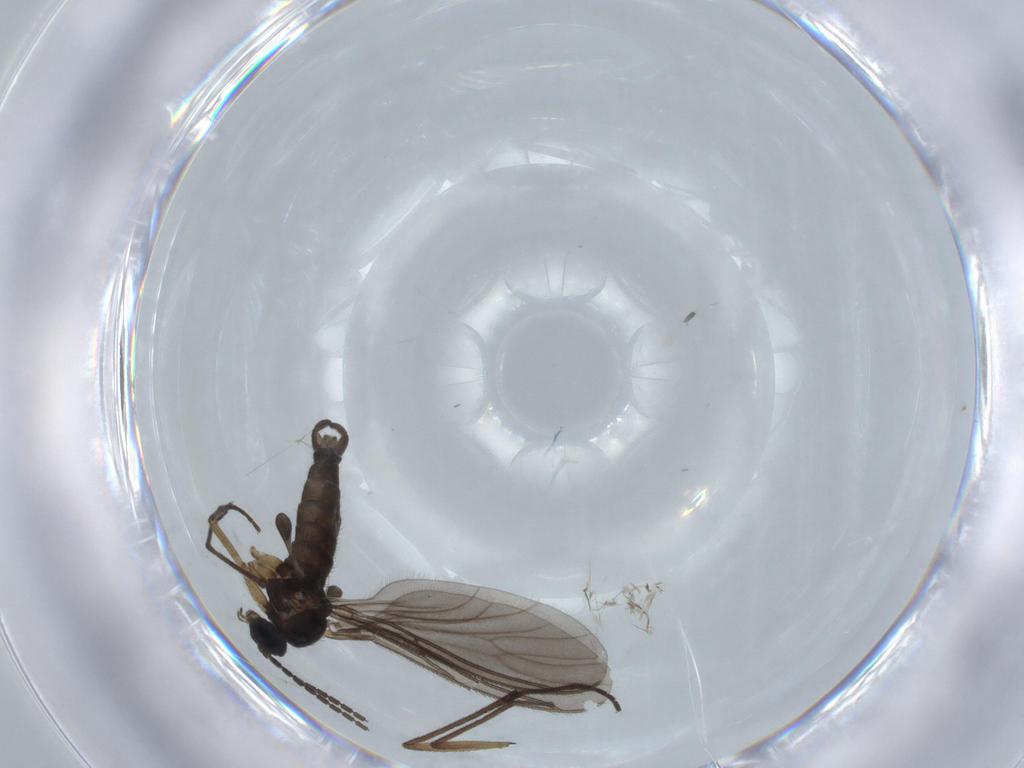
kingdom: Animalia
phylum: Arthropoda
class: Insecta
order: Diptera
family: Sciaridae
